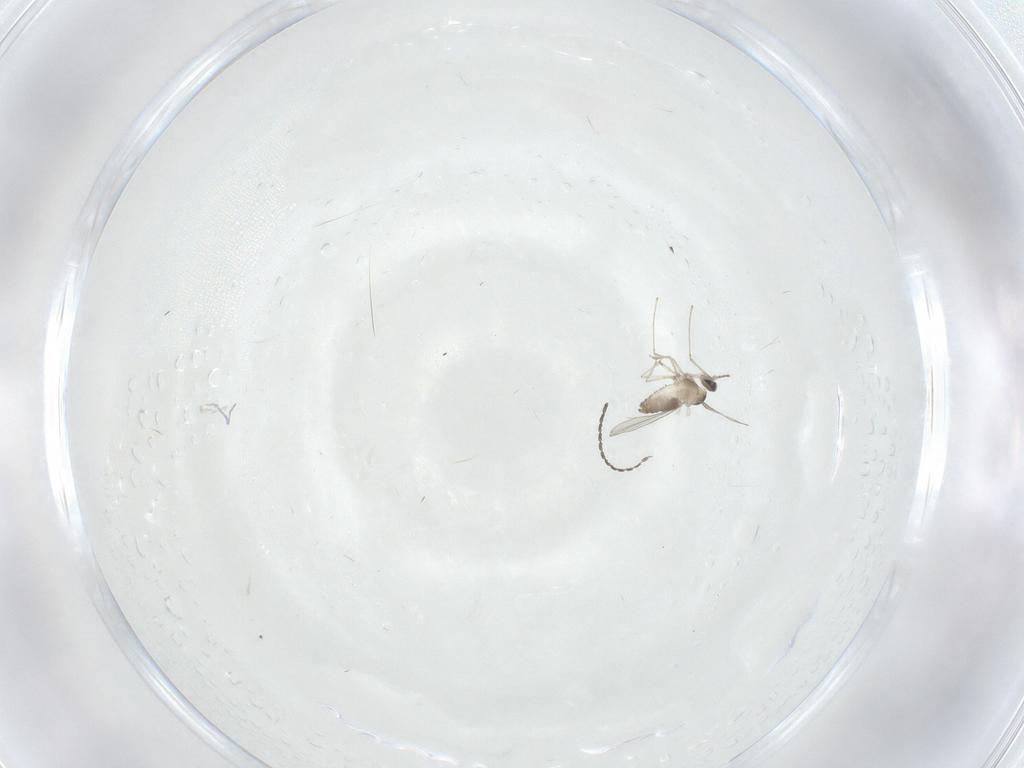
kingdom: Animalia
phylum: Arthropoda
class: Insecta
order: Diptera
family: Cecidomyiidae
